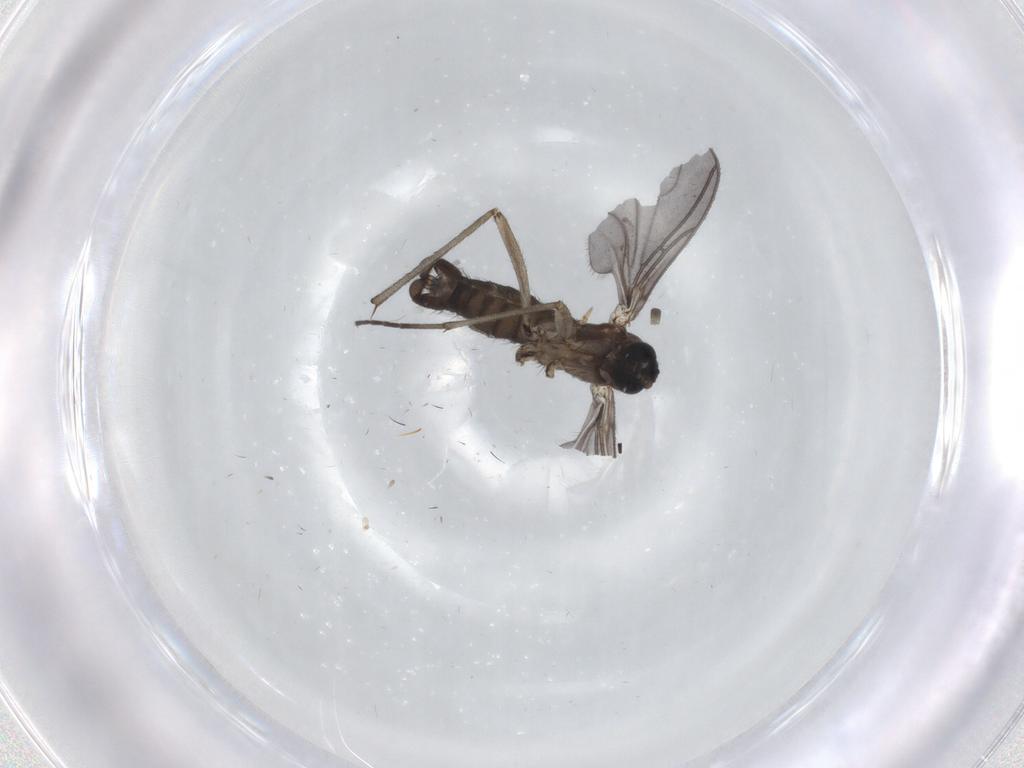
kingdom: Animalia
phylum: Arthropoda
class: Insecta
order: Diptera
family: Sciaridae
